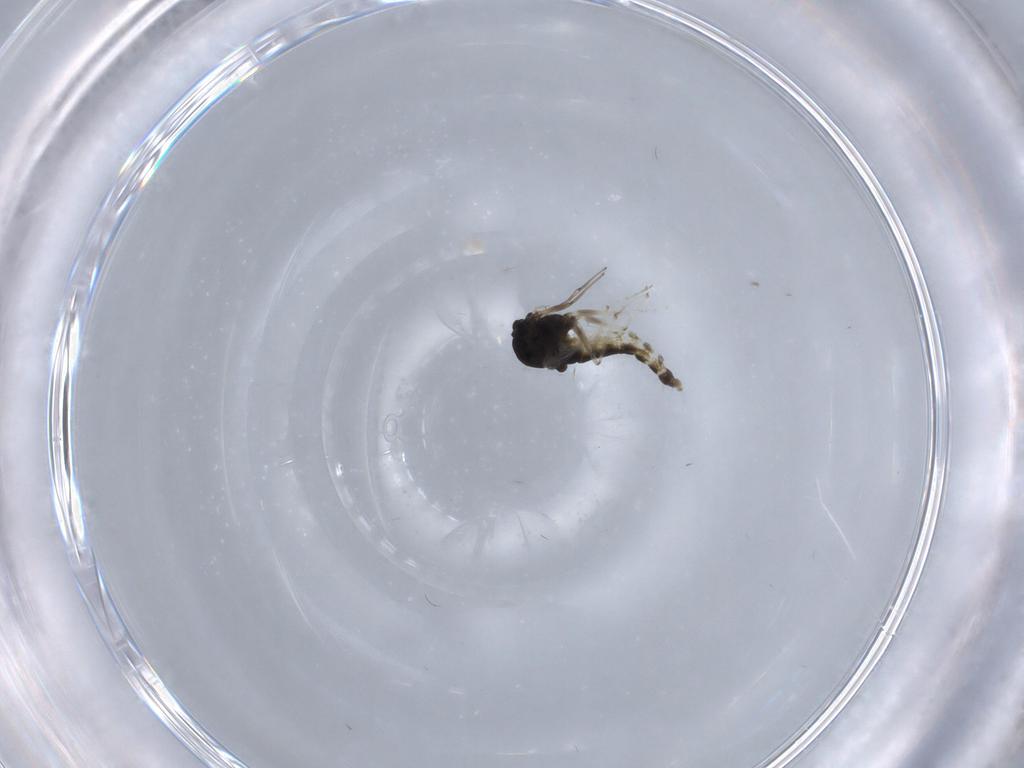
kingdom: Animalia
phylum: Arthropoda
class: Insecta
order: Diptera
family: Chironomidae
